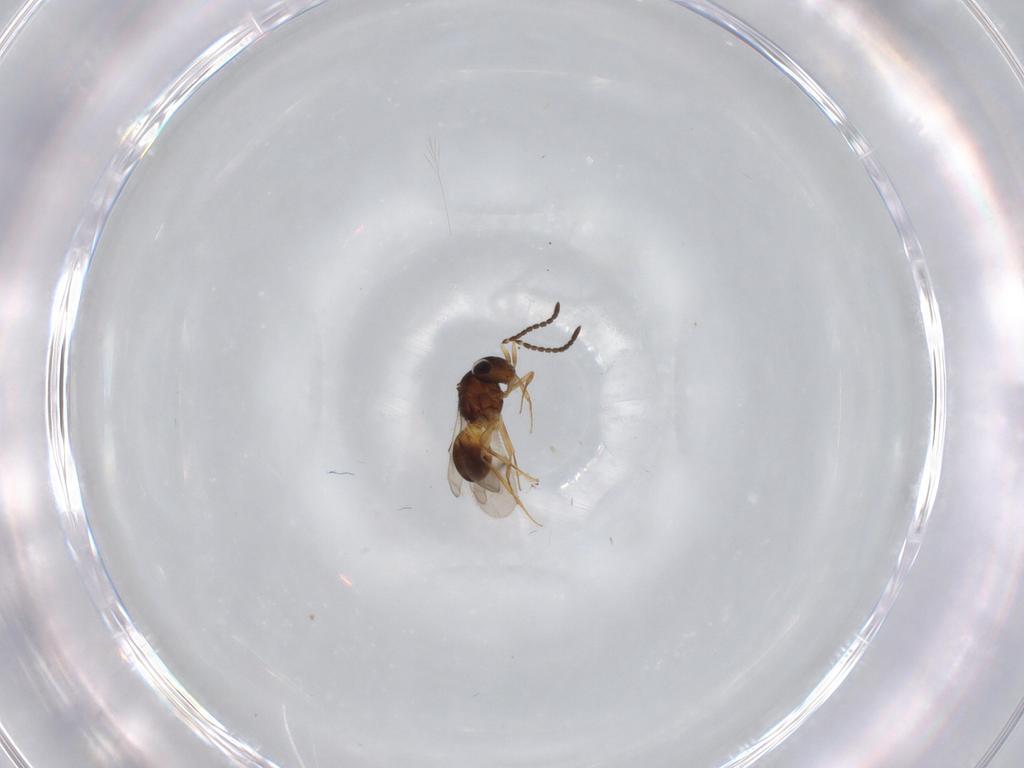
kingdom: Animalia
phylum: Arthropoda
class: Arachnida
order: Araneae
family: Pholcidae
